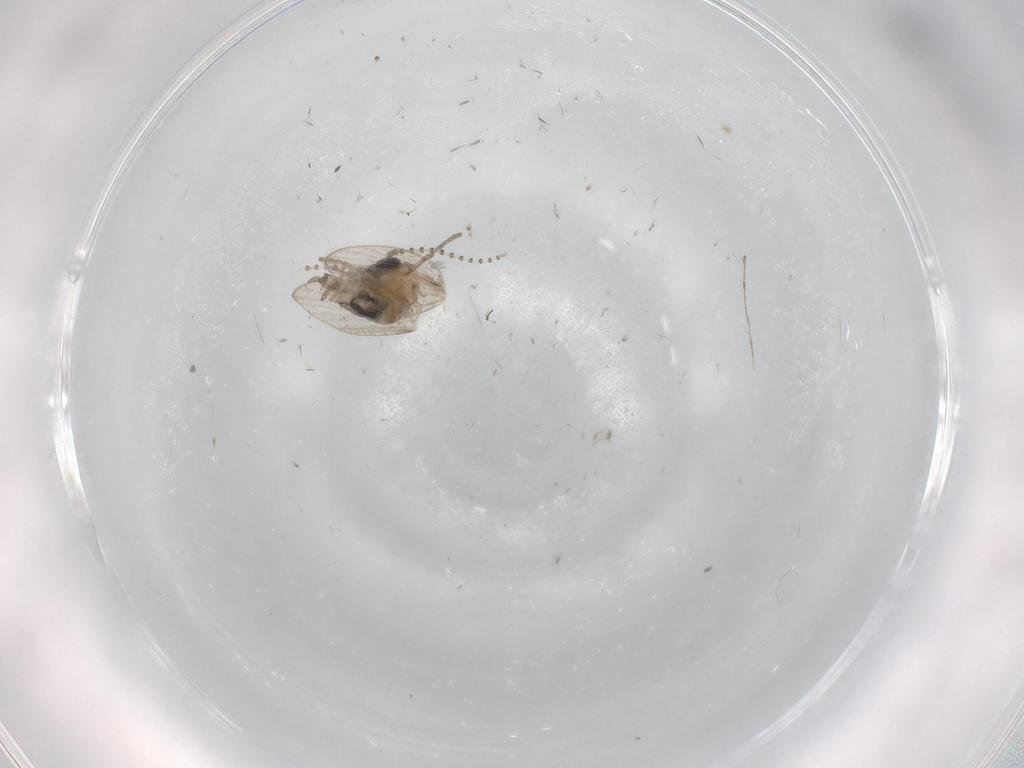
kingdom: Animalia
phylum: Arthropoda
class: Insecta
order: Diptera
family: Psychodidae
